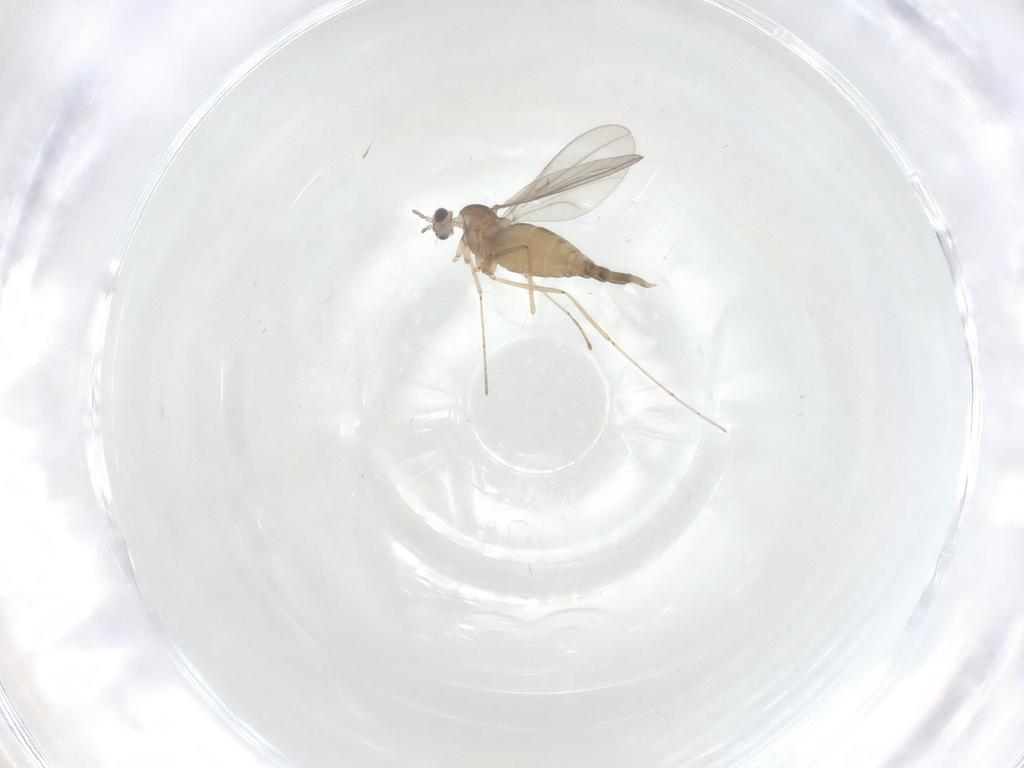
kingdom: Animalia
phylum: Arthropoda
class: Insecta
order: Diptera
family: Cecidomyiidae
